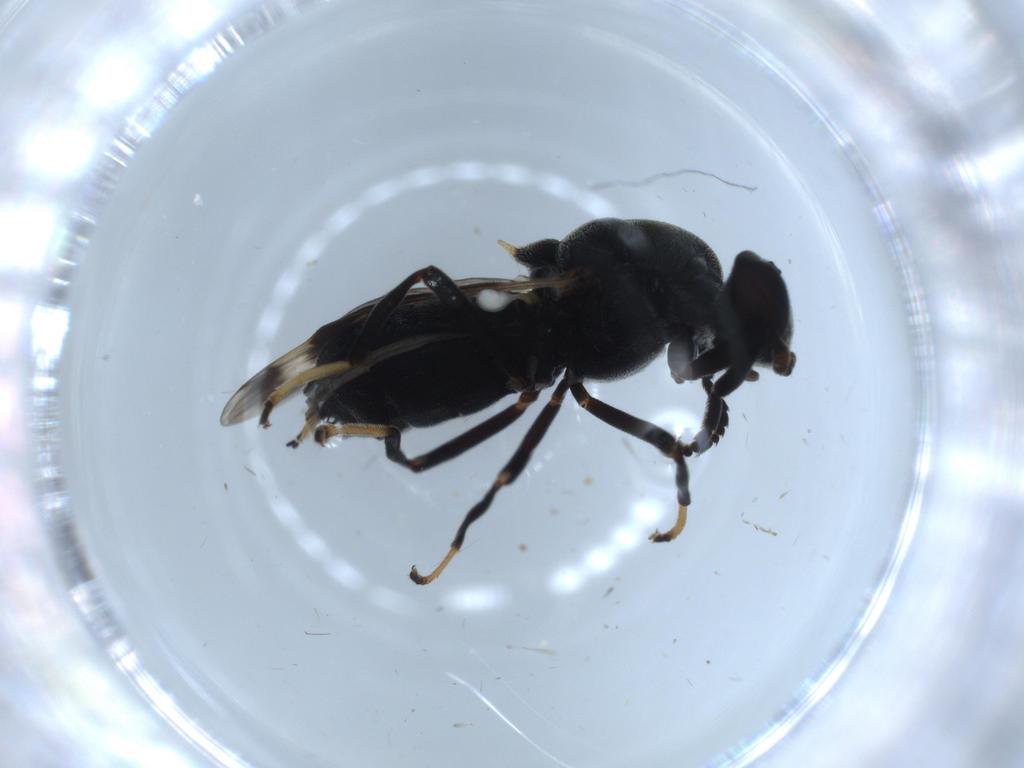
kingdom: Animalia
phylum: Arthropoda
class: Insecta
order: Diptera
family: Stratiomyidae
